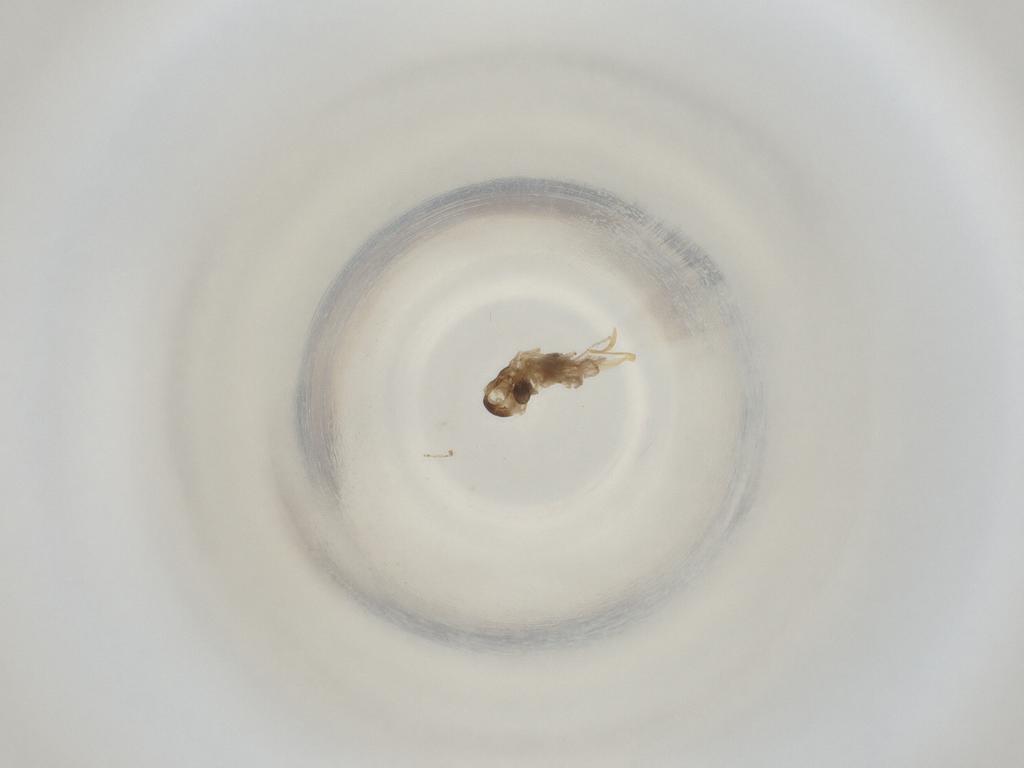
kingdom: Animalia
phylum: Arthropoda
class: Insecta
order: Diptera
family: Cecidomyiidae
